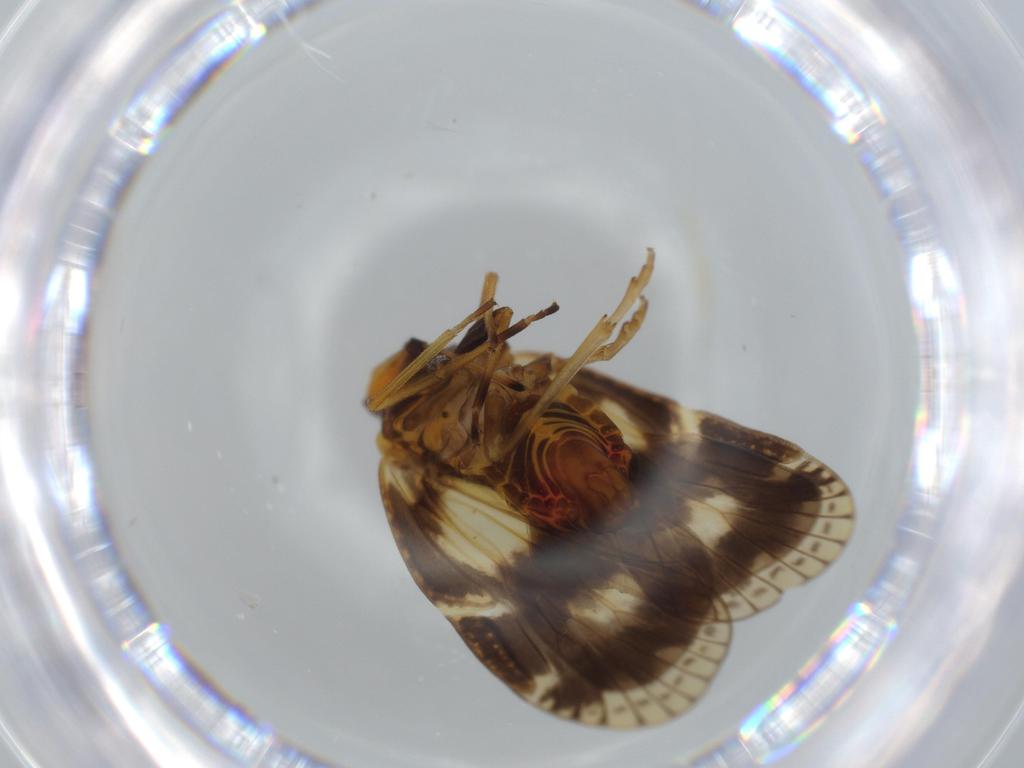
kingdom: Animalia
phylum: Arthropoda
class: Insecta
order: Hemiptera
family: Cixiidae
